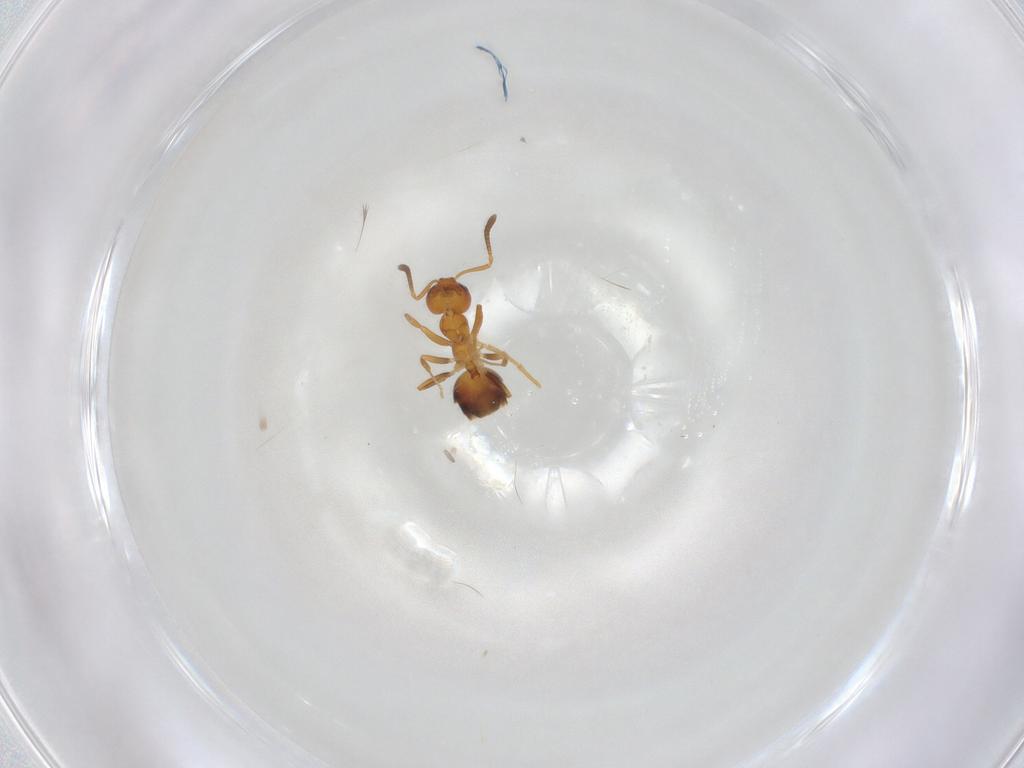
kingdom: Animalia
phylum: Arthropoda
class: Insecta
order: Hymenoptera
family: Formicidae
